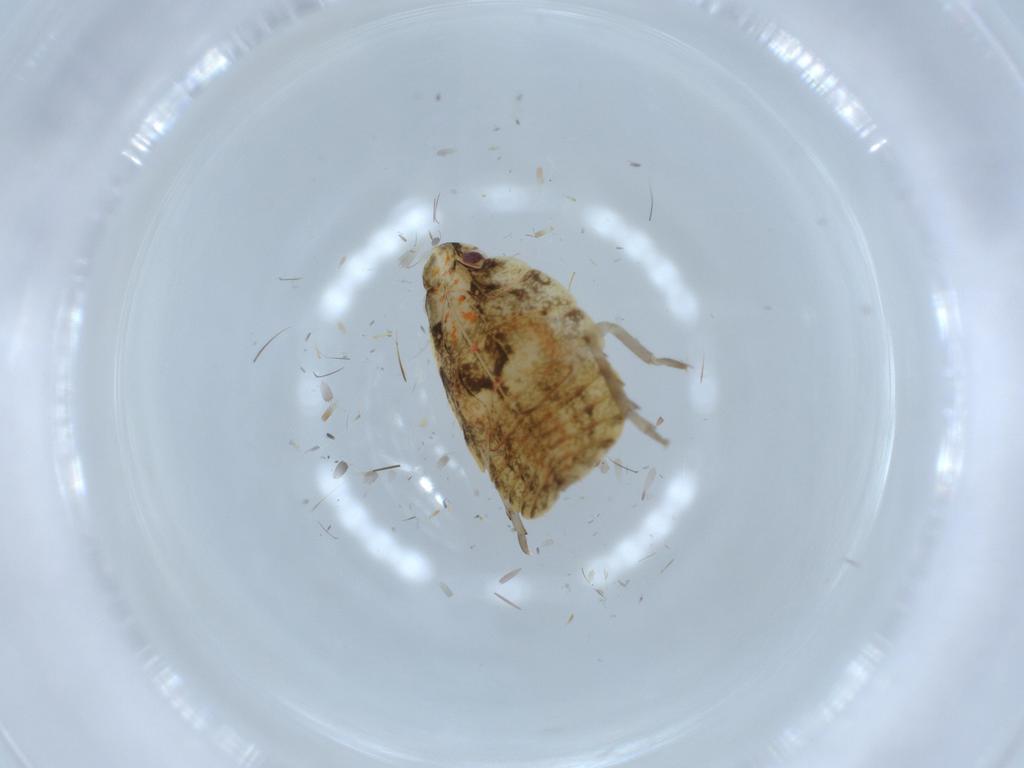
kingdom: Animalia
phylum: Arthropoda
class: Insecta
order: Hemiptera
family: Flatidae
